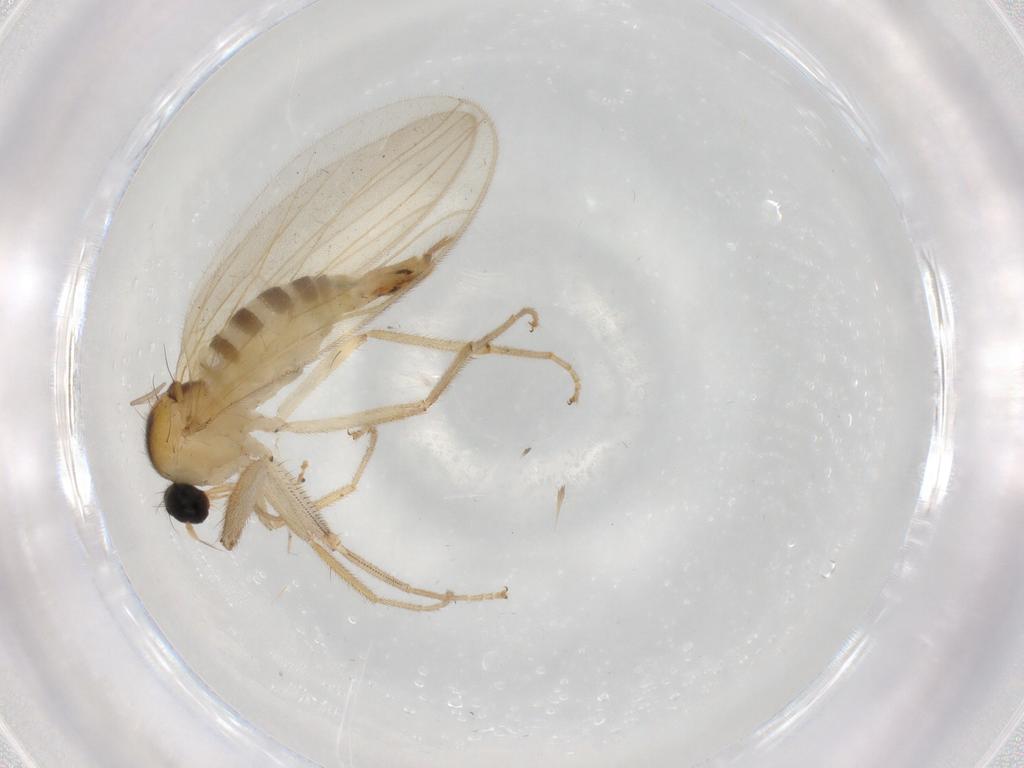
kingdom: Animalia
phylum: Arthropoda
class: Insecta
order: Diptera
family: Hybotidae
